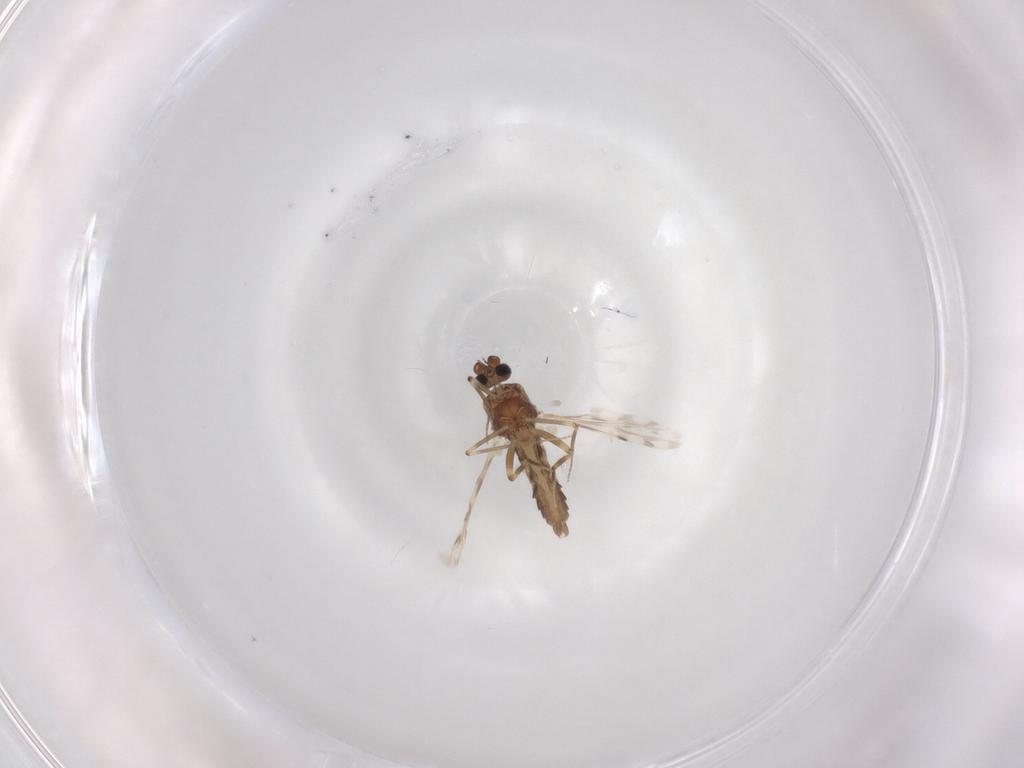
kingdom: Animalia
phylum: Arthropoda
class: Insecta
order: Diptera
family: Ceratopogonidae
